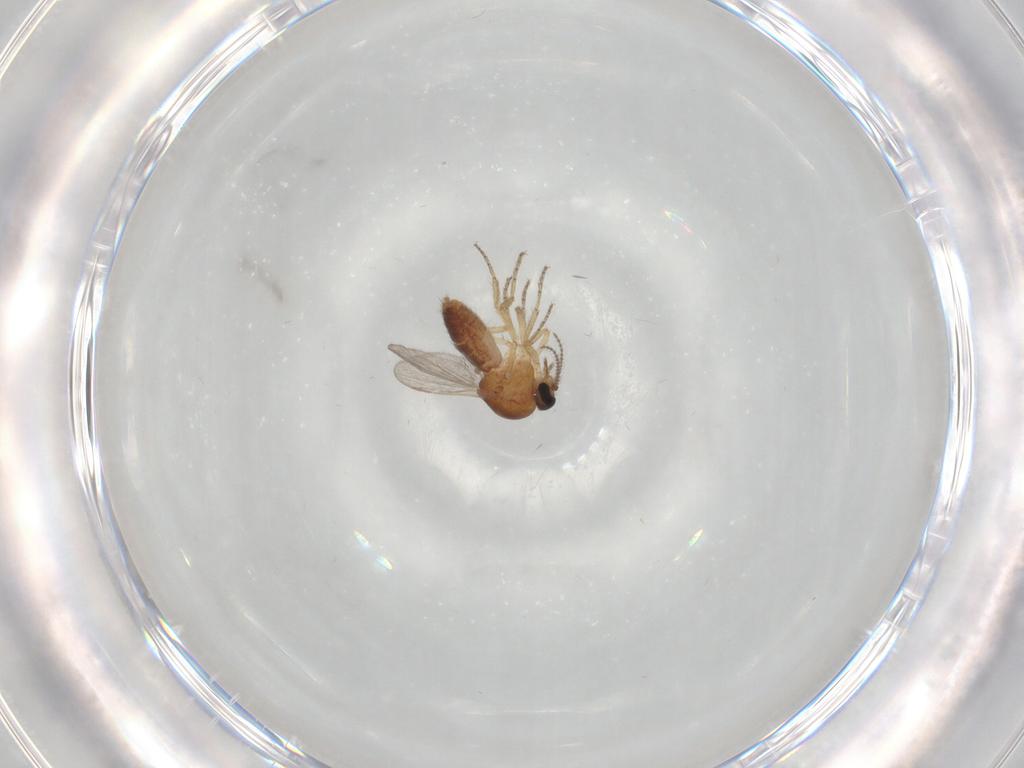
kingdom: Animalia
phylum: Arthropoda
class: Insecta
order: Diptera
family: Ceratopogonidae
